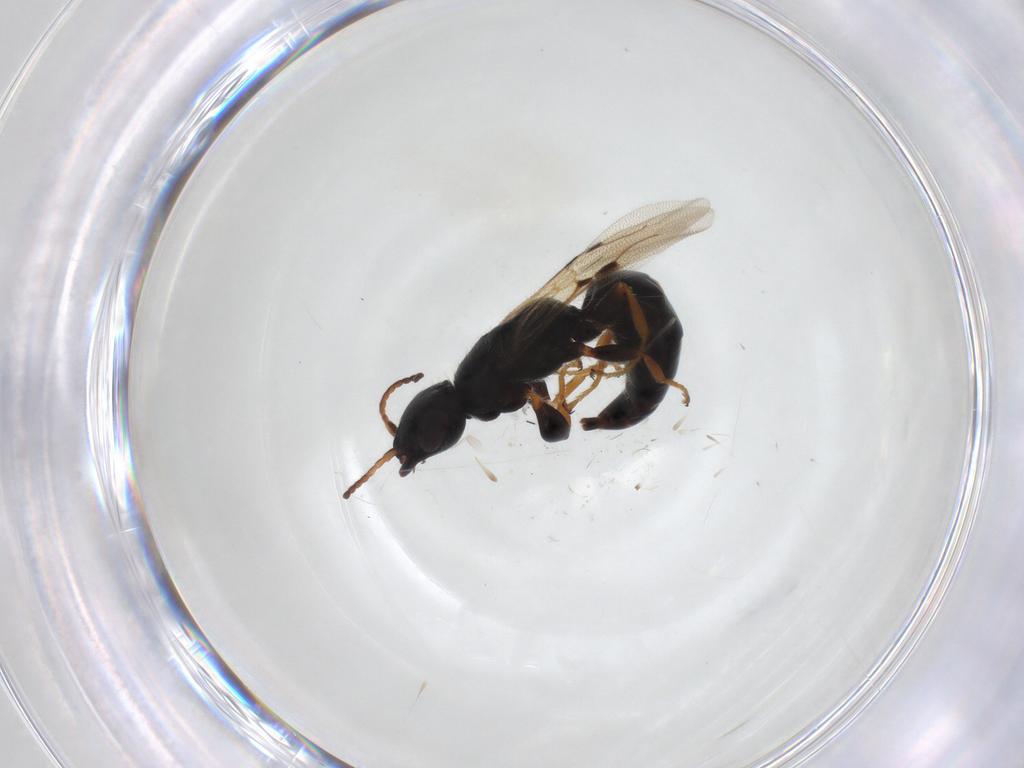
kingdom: Animalia
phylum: Arthropoda
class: Insecta
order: Hymenoptera
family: Bethylidae
